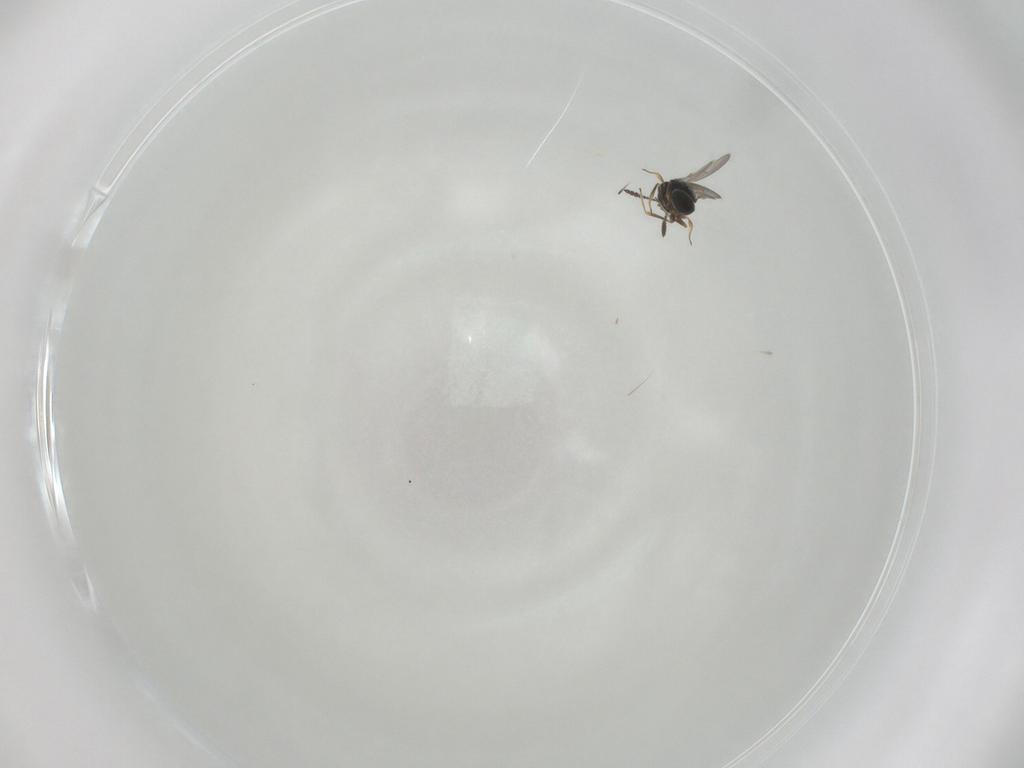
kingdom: Animalia
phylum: Arthropoda
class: Insecta
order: Hymenoptera
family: Scelionidae
